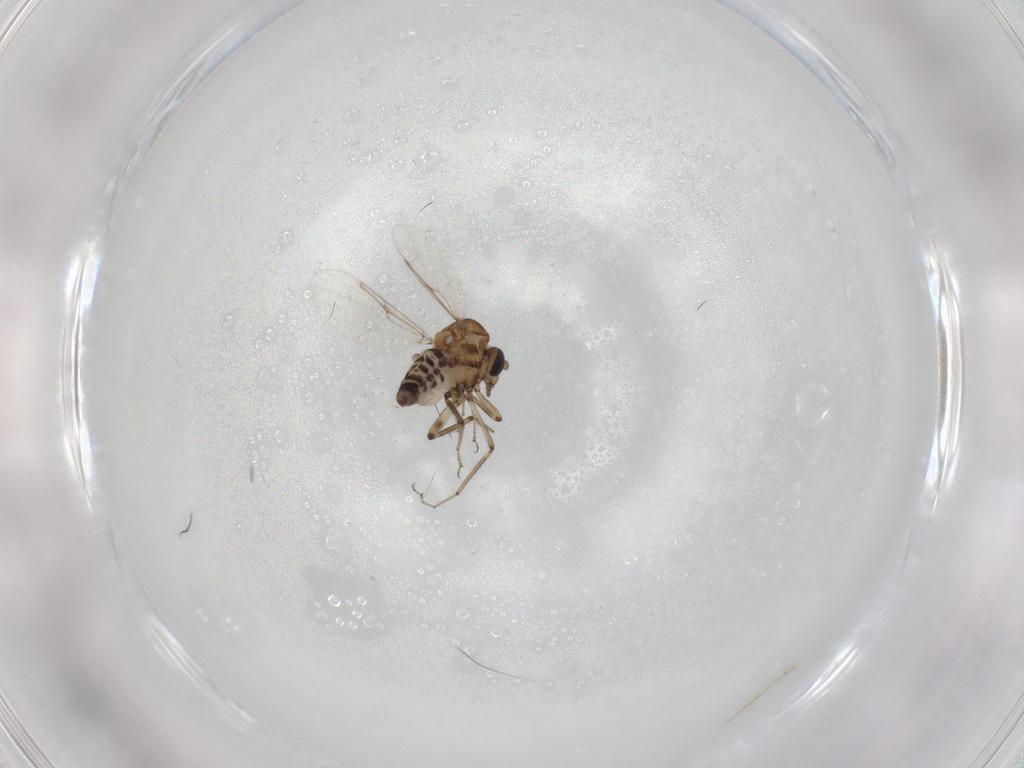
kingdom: Animalia
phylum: Arthropoda
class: Insecta
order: Diptera
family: Ceratopogonidae
